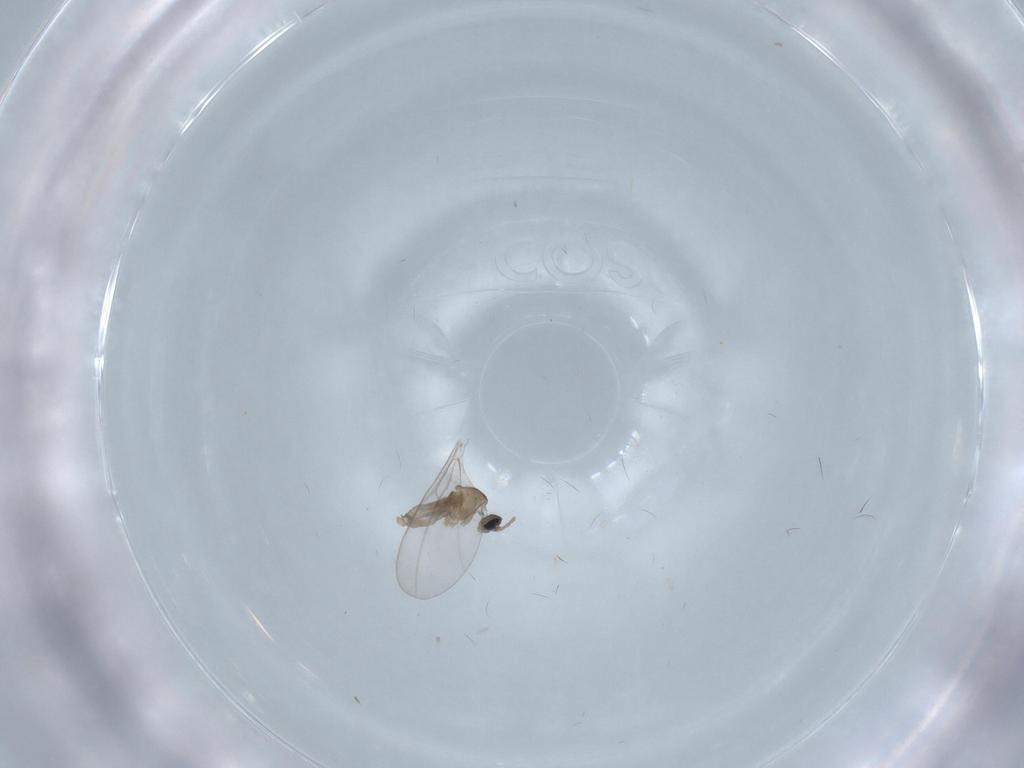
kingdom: Animalia
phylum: Arthropoda
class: Insecta
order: Diptera
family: Cecidomyiidae
